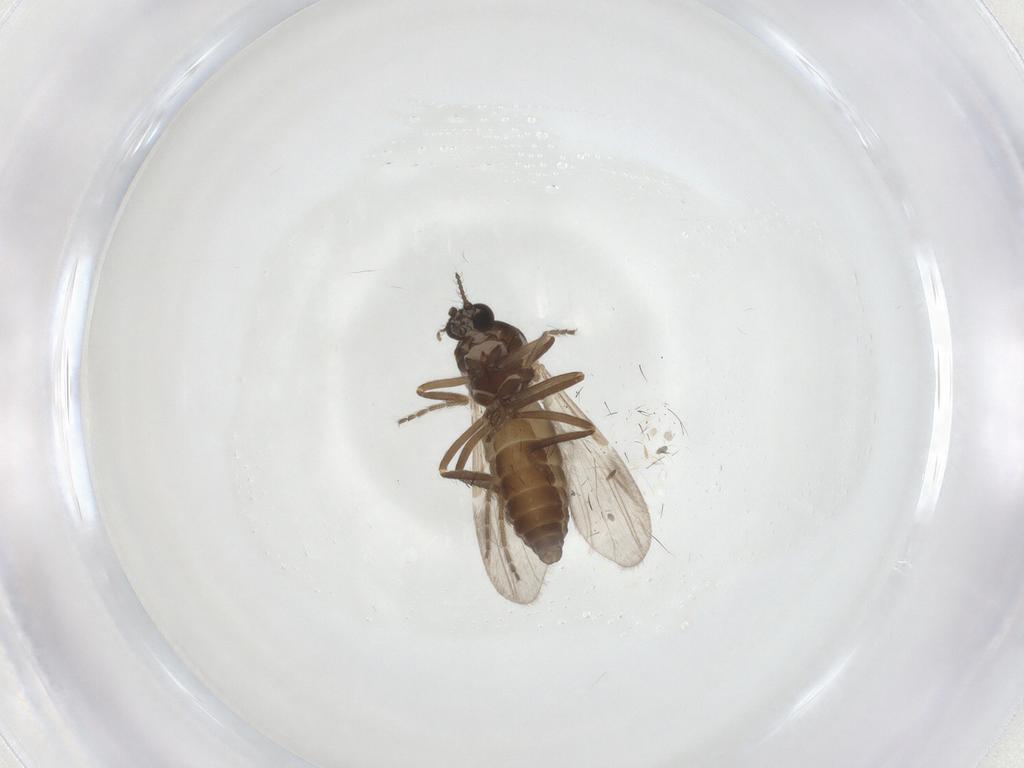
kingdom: Animalia
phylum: Arthropoda
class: Insecta
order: Diptera
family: Ceratopogonidae
